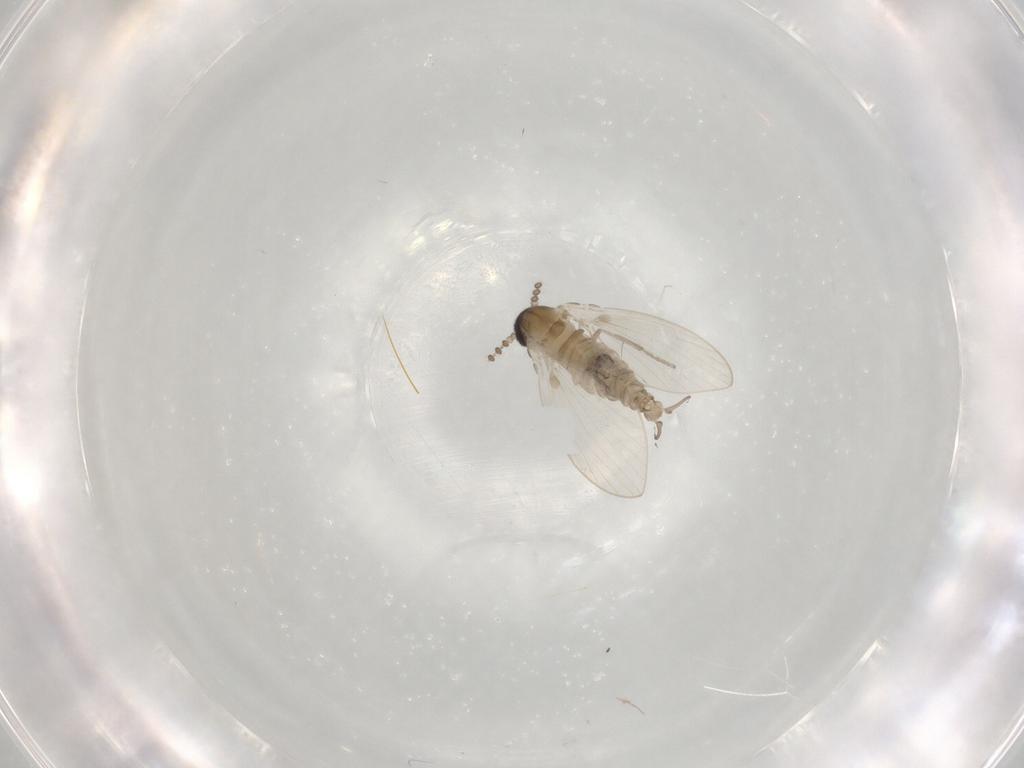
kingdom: Animalia
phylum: Arthropoda
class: Insecta
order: Diptera
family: Psychodidae
